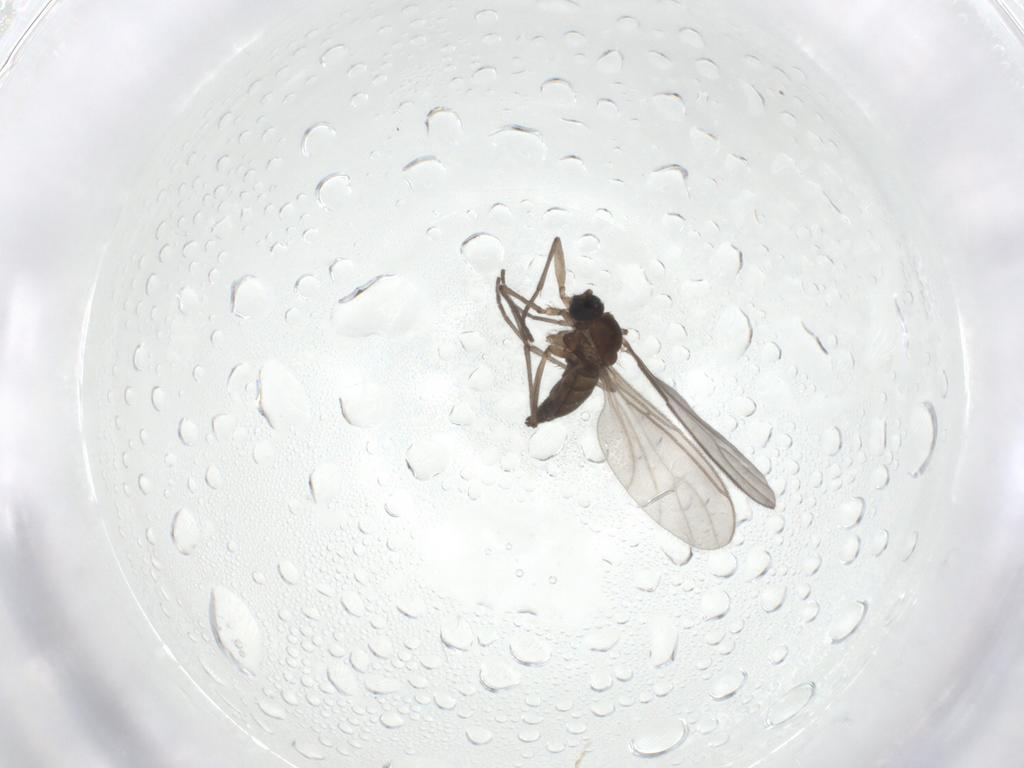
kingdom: Animalia
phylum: Arthropoda
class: Insecta
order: Diptera
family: Sciaridae
